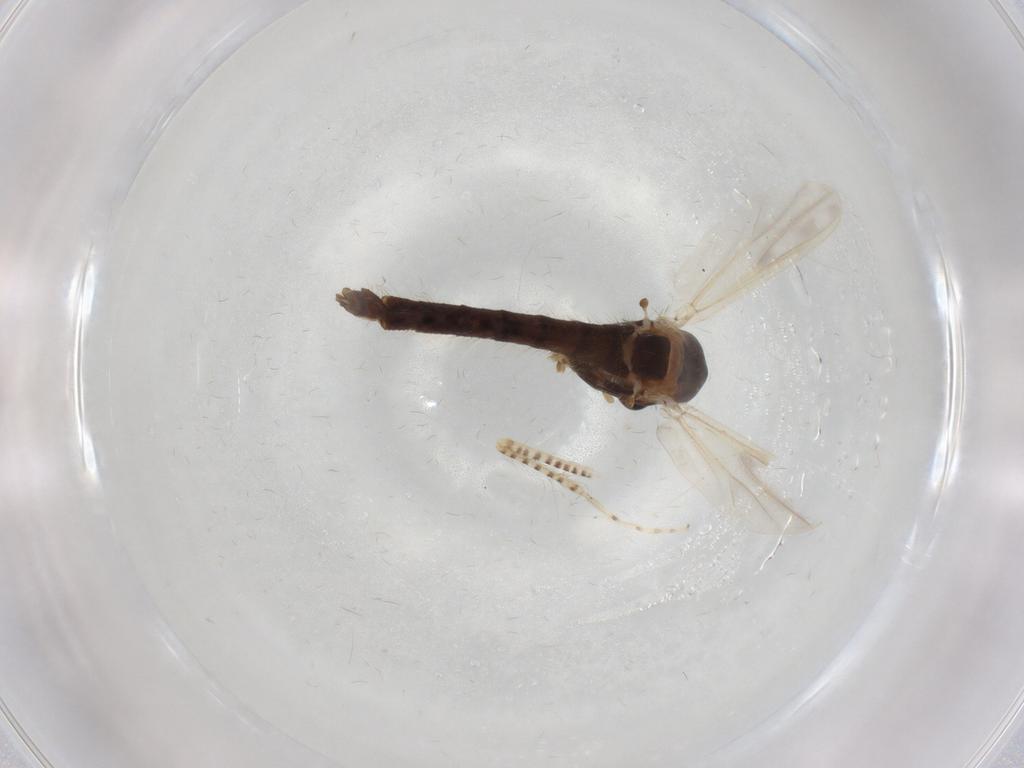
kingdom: Animalia
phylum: Arthropoda
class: Insecta
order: Diptera
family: Chironomidae
